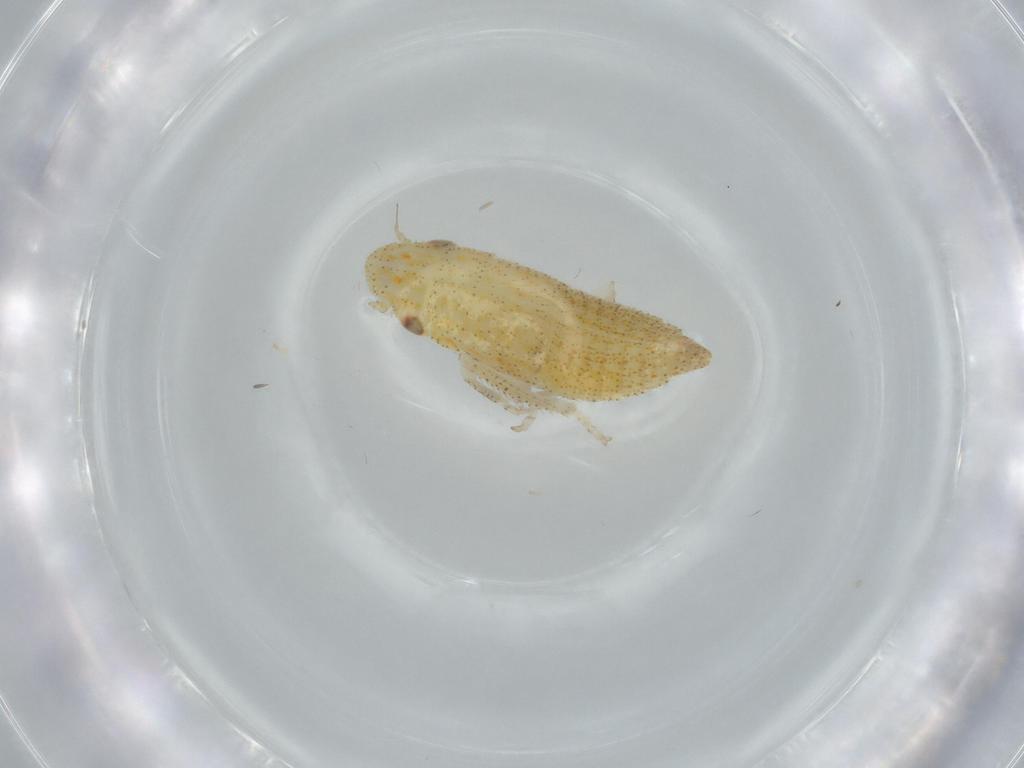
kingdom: Animalia
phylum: Arthropoda
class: Insecta
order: Hemiptera
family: Cicadellidae
